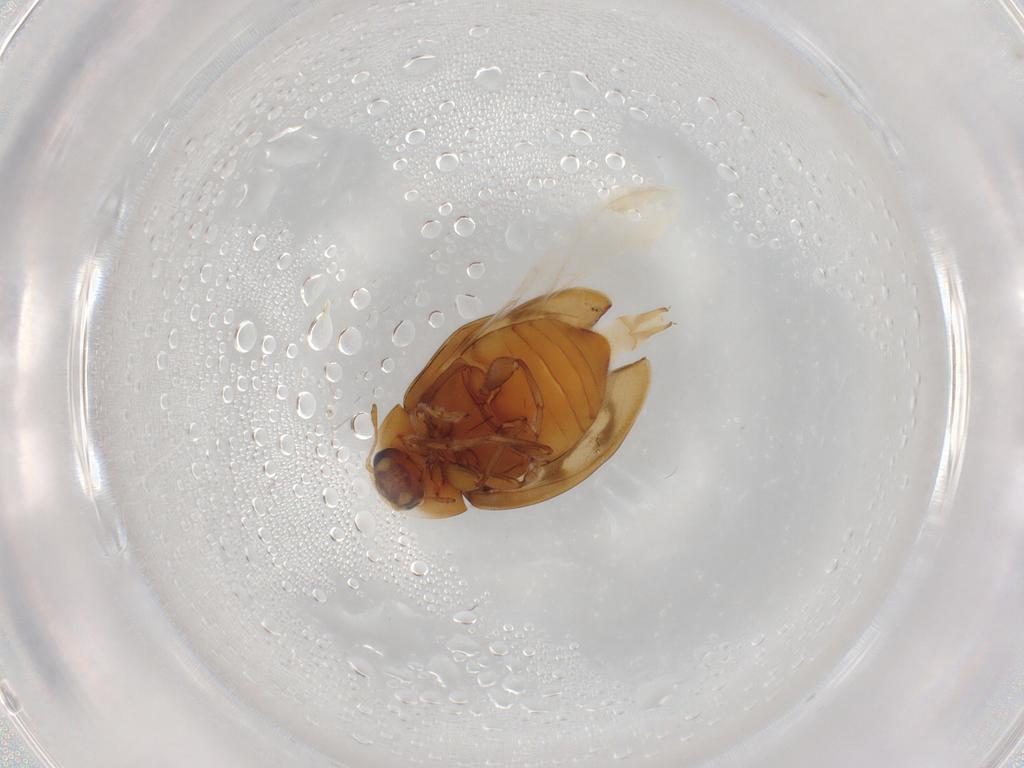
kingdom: Animalia
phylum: Arthropoda
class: Insecta
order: Coleoptera
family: Coccinellidae
